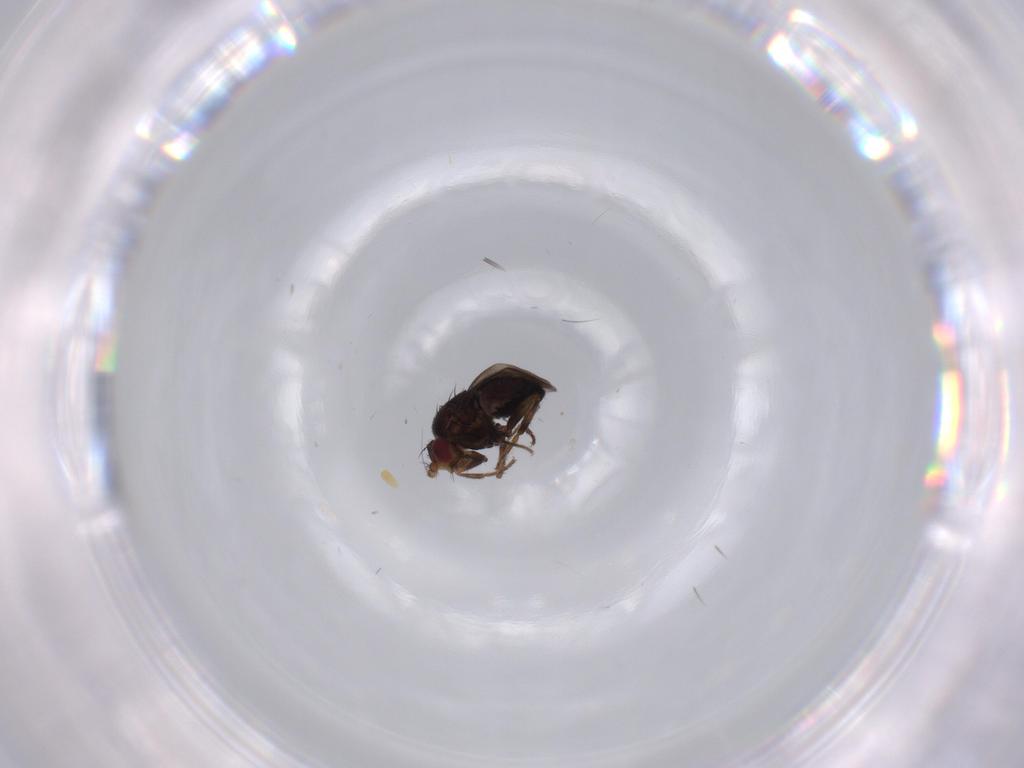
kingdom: Animalia
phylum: Arthropoda
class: Insecta
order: Diptera
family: Sphaeroceridae
